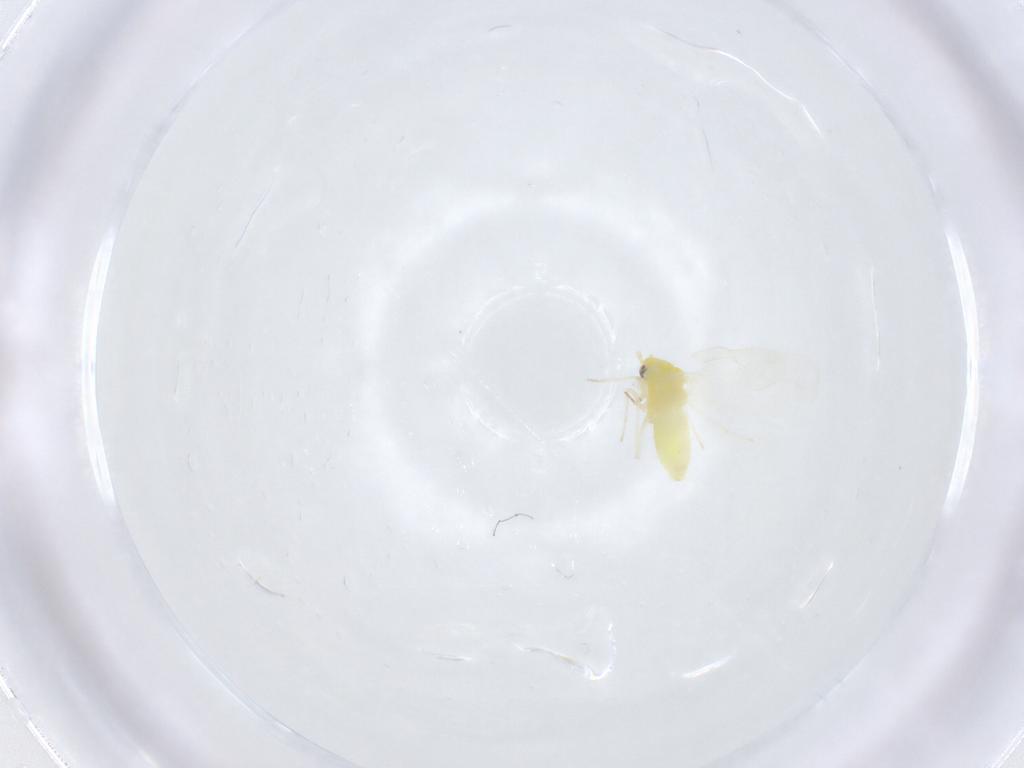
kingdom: Animalia
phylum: Arthropoda
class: Insecta
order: Hemiptera
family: Aleyrodidae
